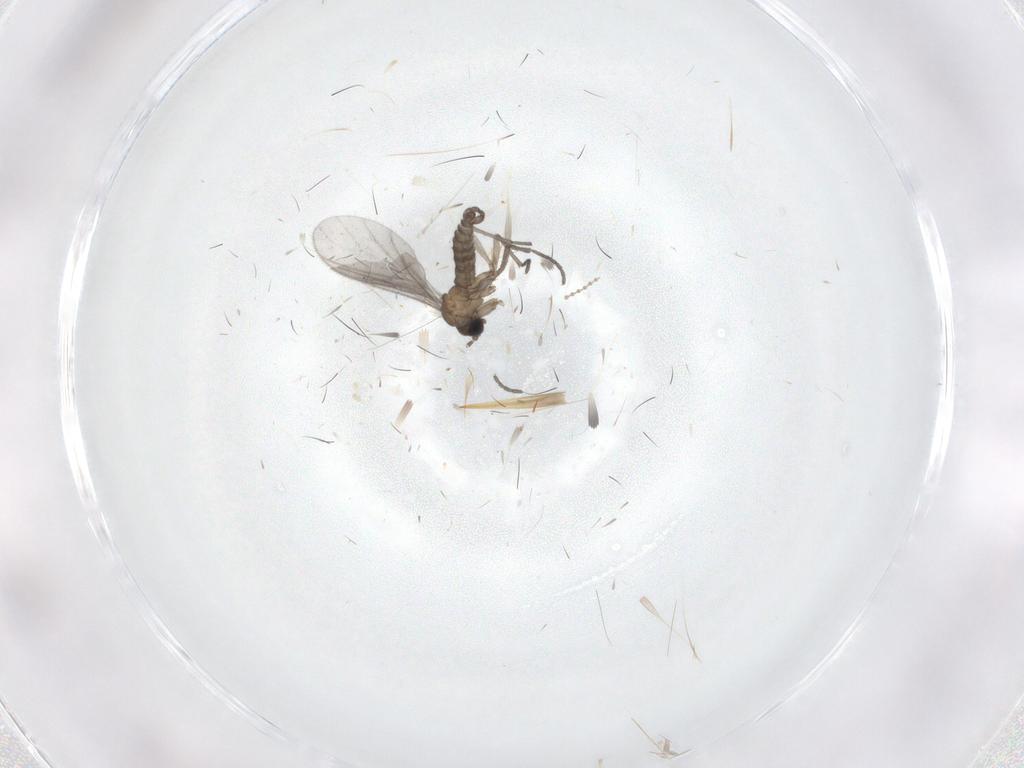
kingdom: Animalia
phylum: Arthropoda
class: Insecta
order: Diptera
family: Sciaridae
